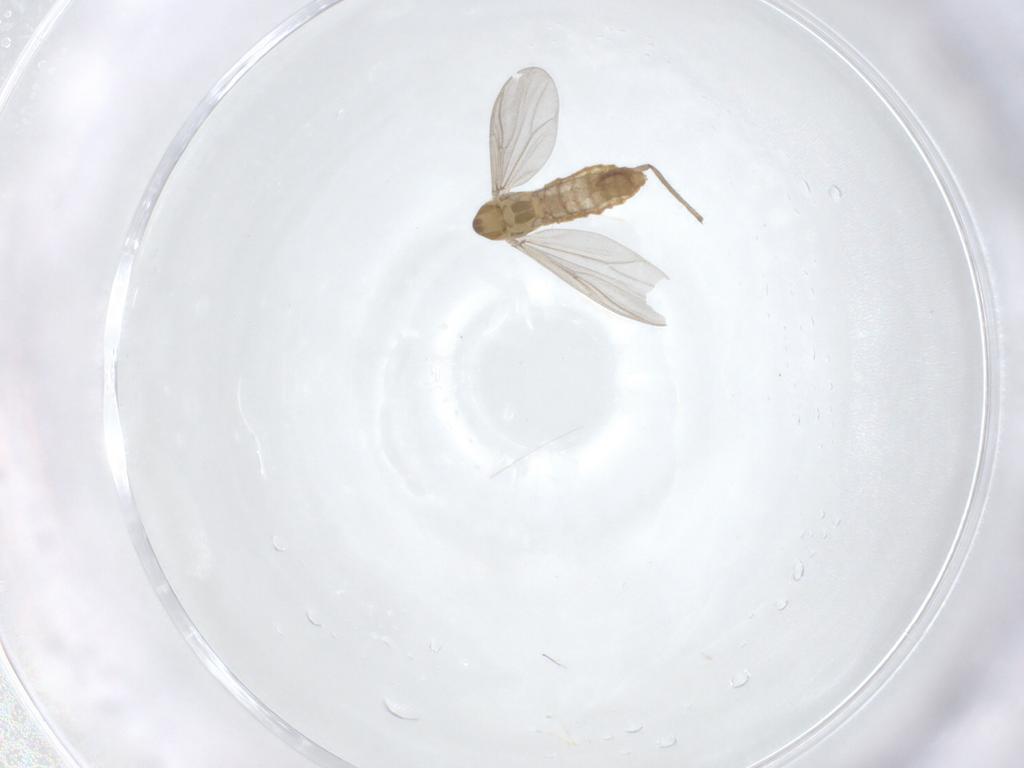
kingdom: Animalia
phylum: Arthropoda
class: Insecta
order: Diptera
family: Chironomidae
